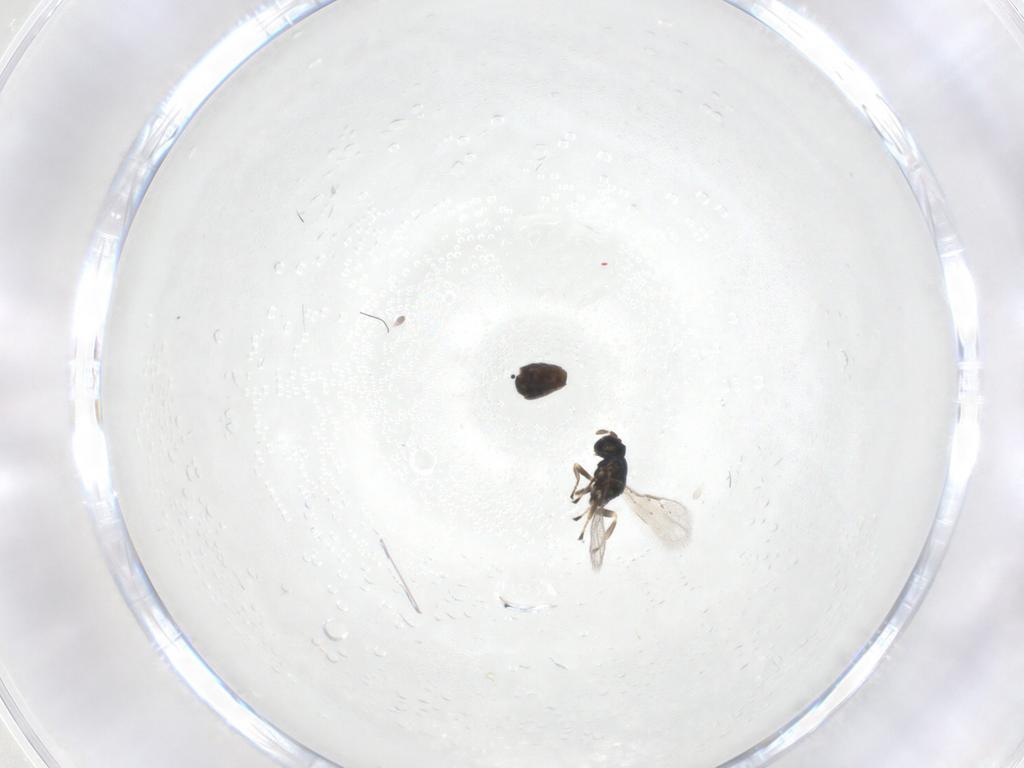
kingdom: Animalia
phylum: Arthropoda
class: Insecta
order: Hymenoptera
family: Eulophidae
